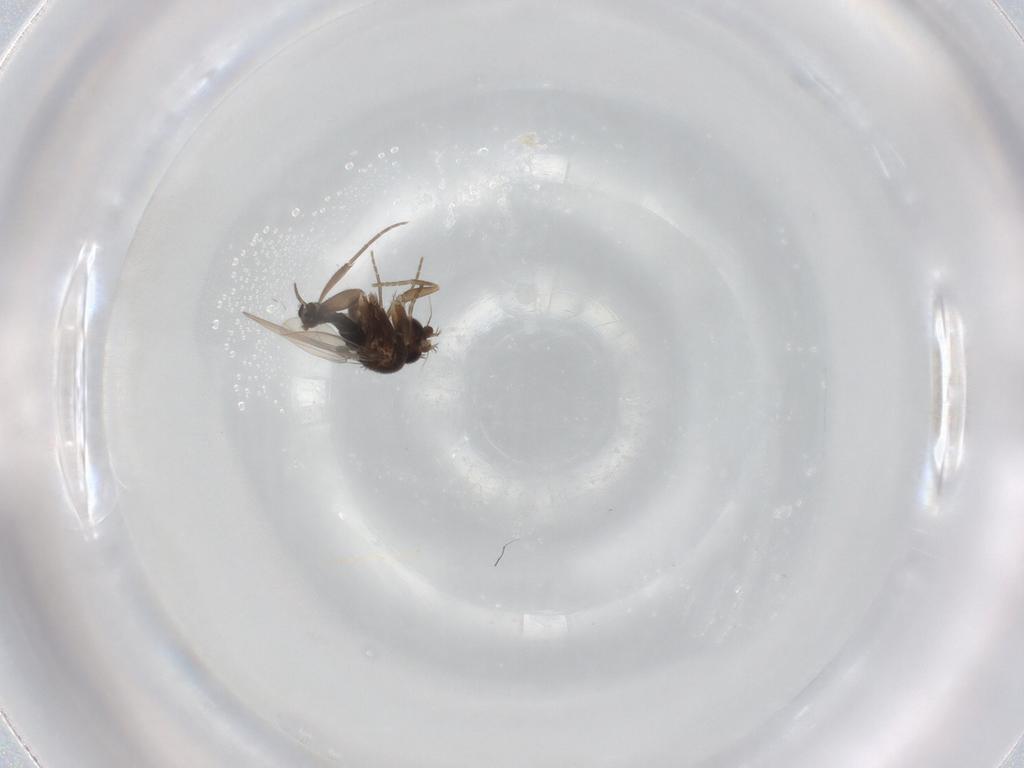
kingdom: Animalia
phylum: Arthropoda
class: Insecta
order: Diptera
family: Phoridae
